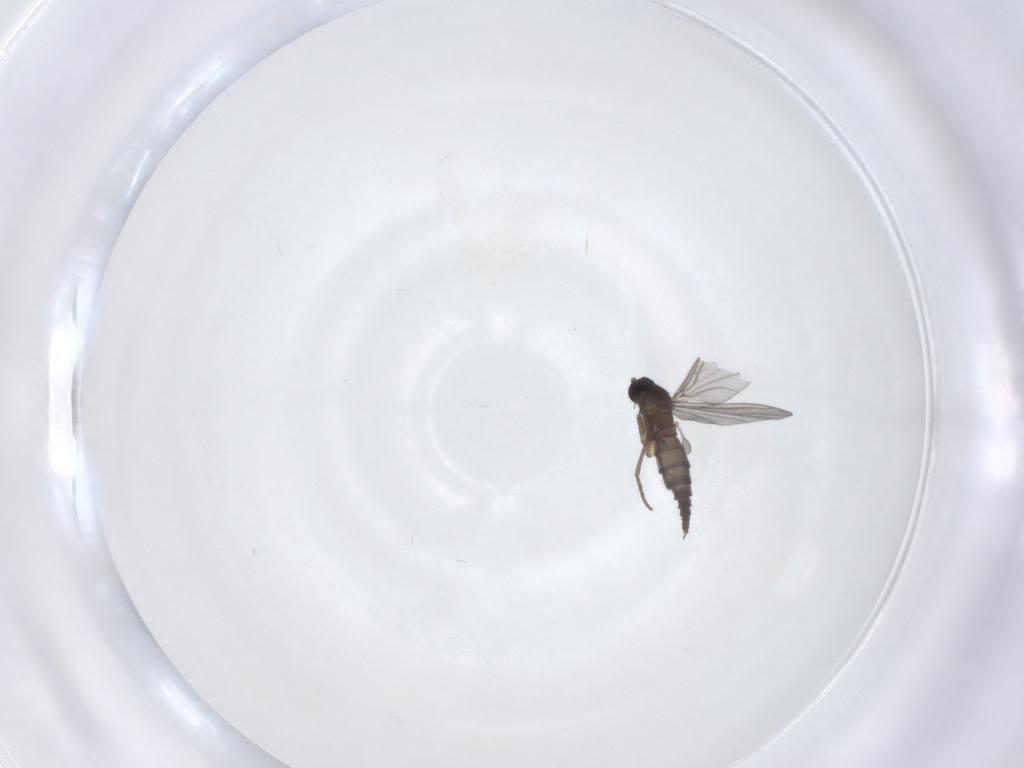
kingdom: Animalia
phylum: Arthropoda
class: Insecta
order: Diptera
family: Sciaridae
